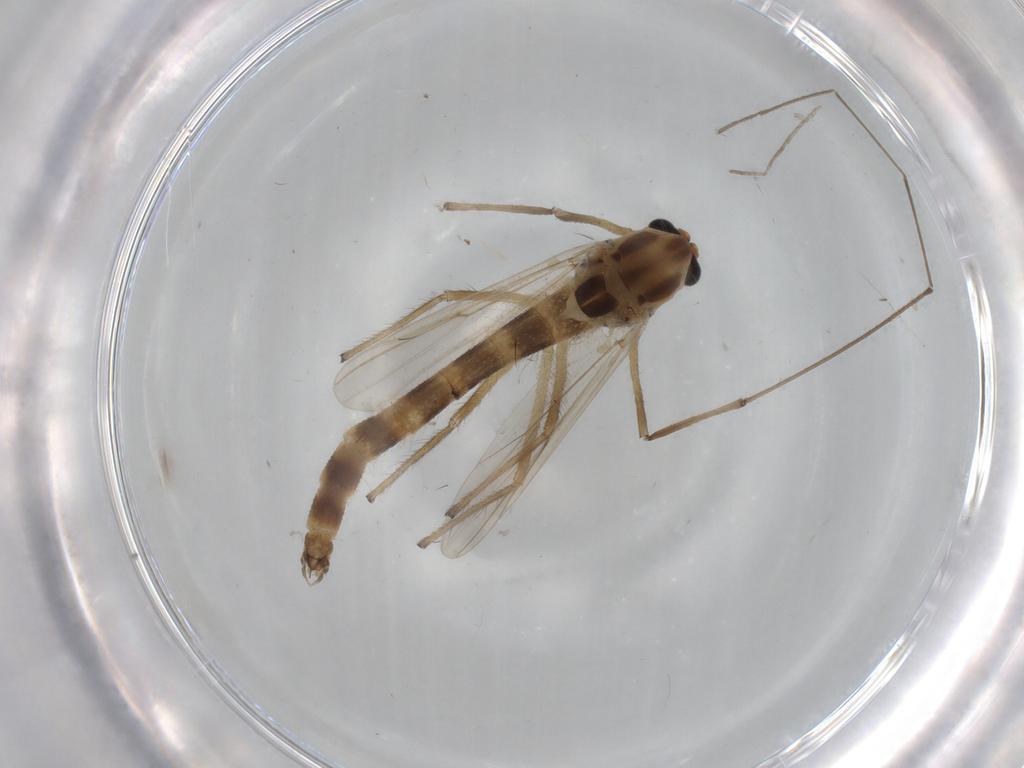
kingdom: Animalia
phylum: Arthropoda
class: Insecta
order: Diptera
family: Chironomidae
